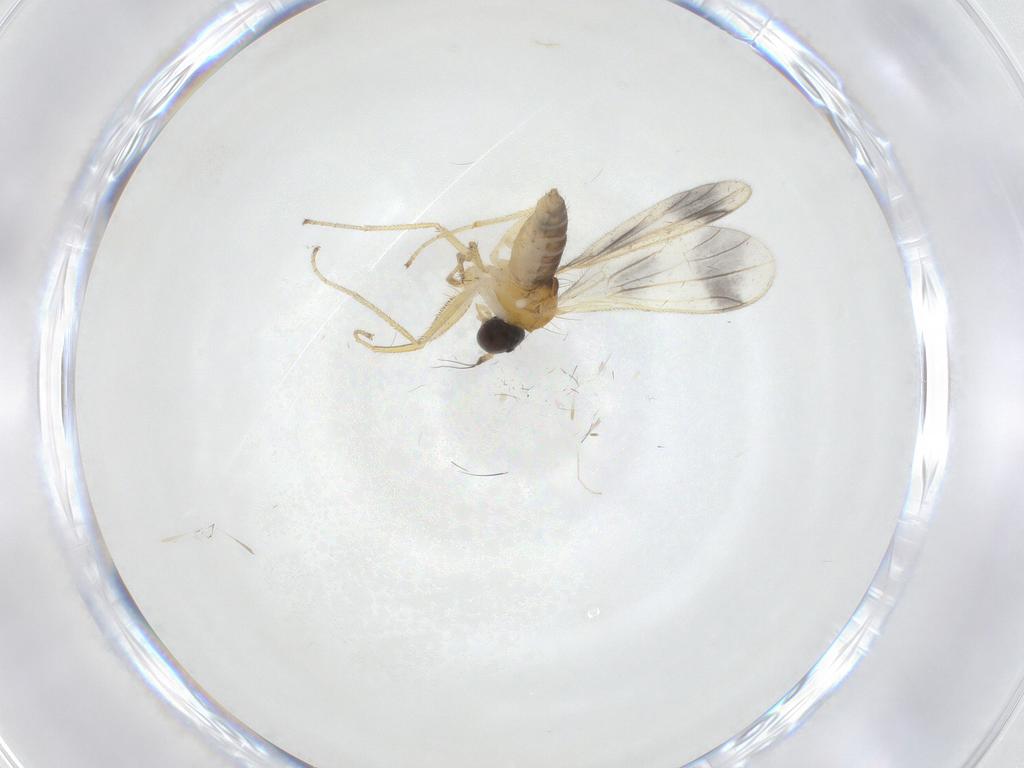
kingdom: Animalia
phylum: Arthropoda
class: Insecta
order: Diptera
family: Empididae
